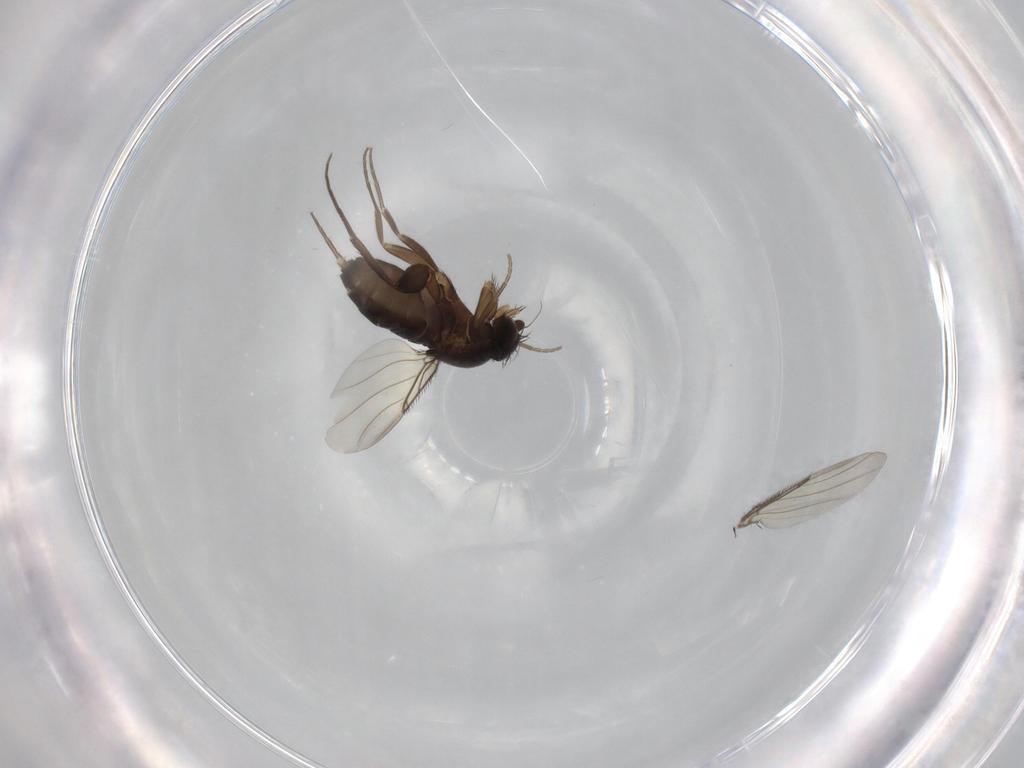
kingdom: Animalia
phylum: Arthropoda
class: Insecta
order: Diptera
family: Phoridae
